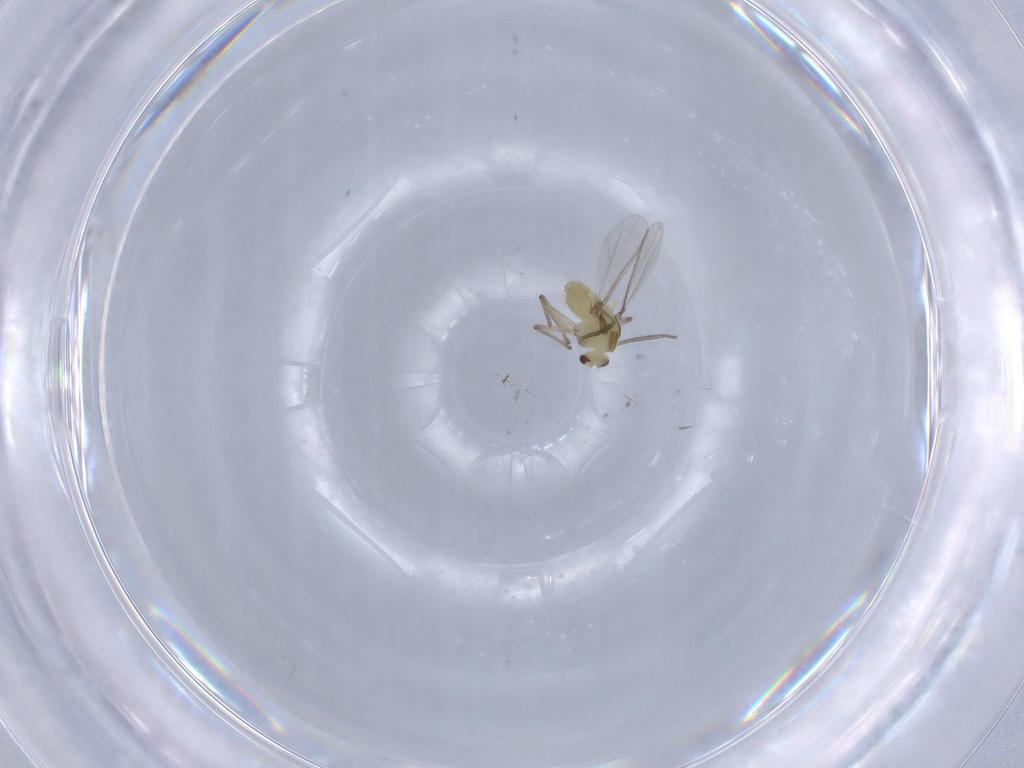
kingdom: Animalia
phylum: Arthropoda
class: Insecta
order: Diptera
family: Chironomidae
